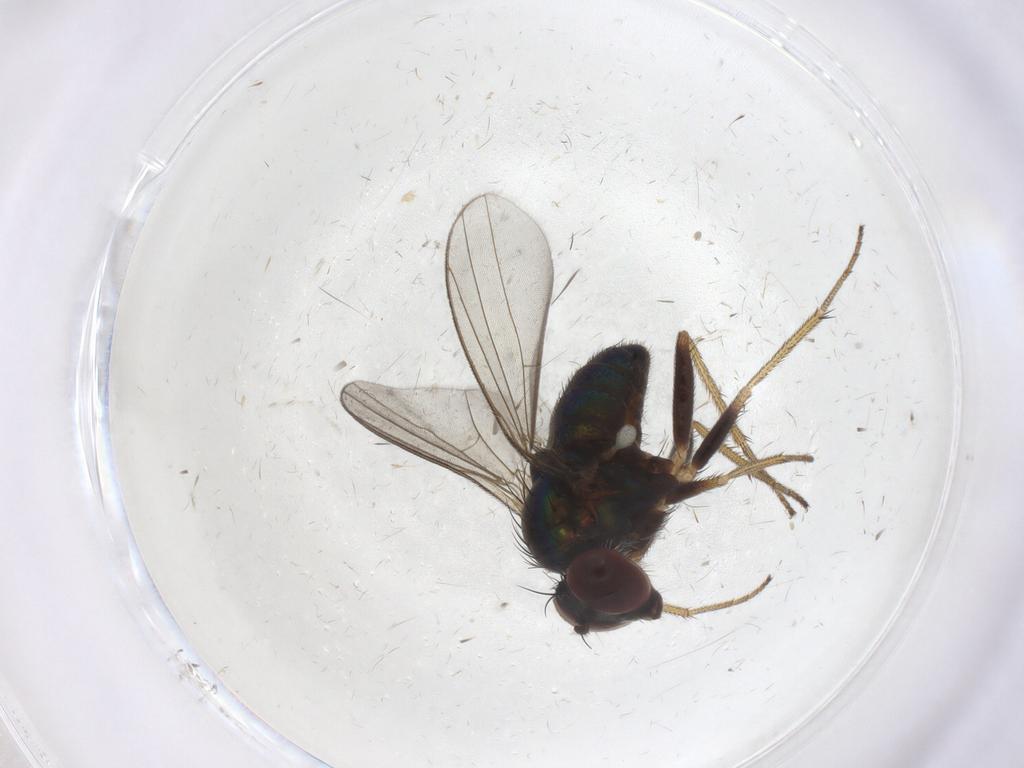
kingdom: Animalia
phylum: Arthropoda
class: Insecta
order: Diptera
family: Dolichopodidae
